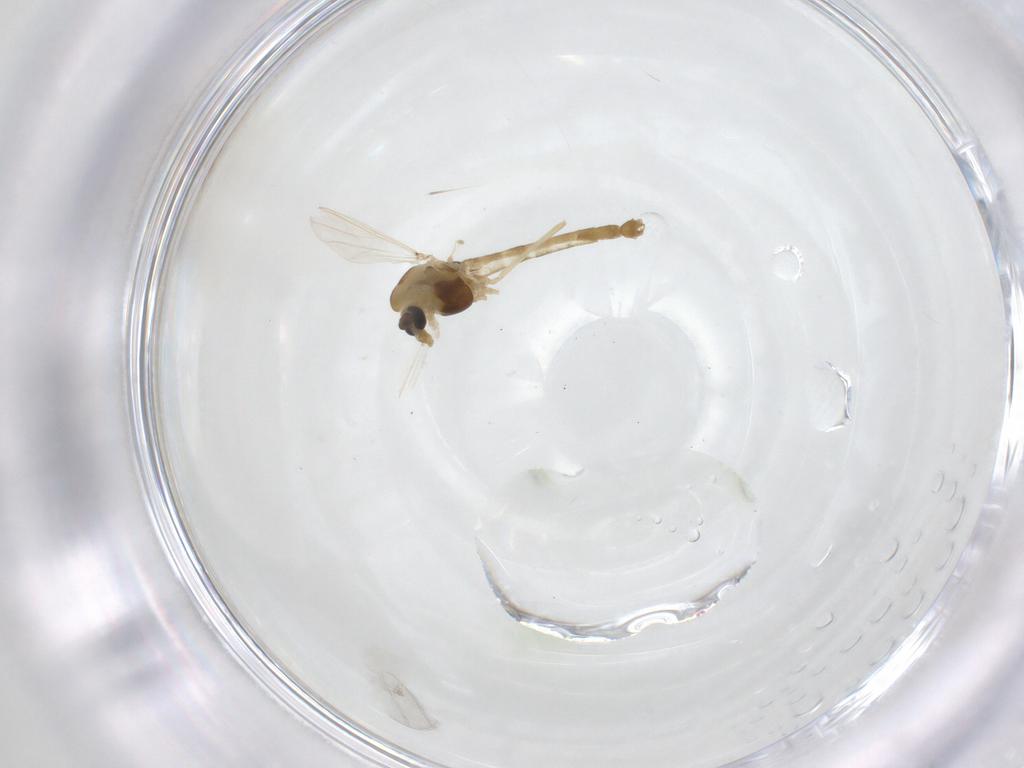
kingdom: Animalia
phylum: Arthropoda
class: Insecta
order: Diptera
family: Chironomidae
